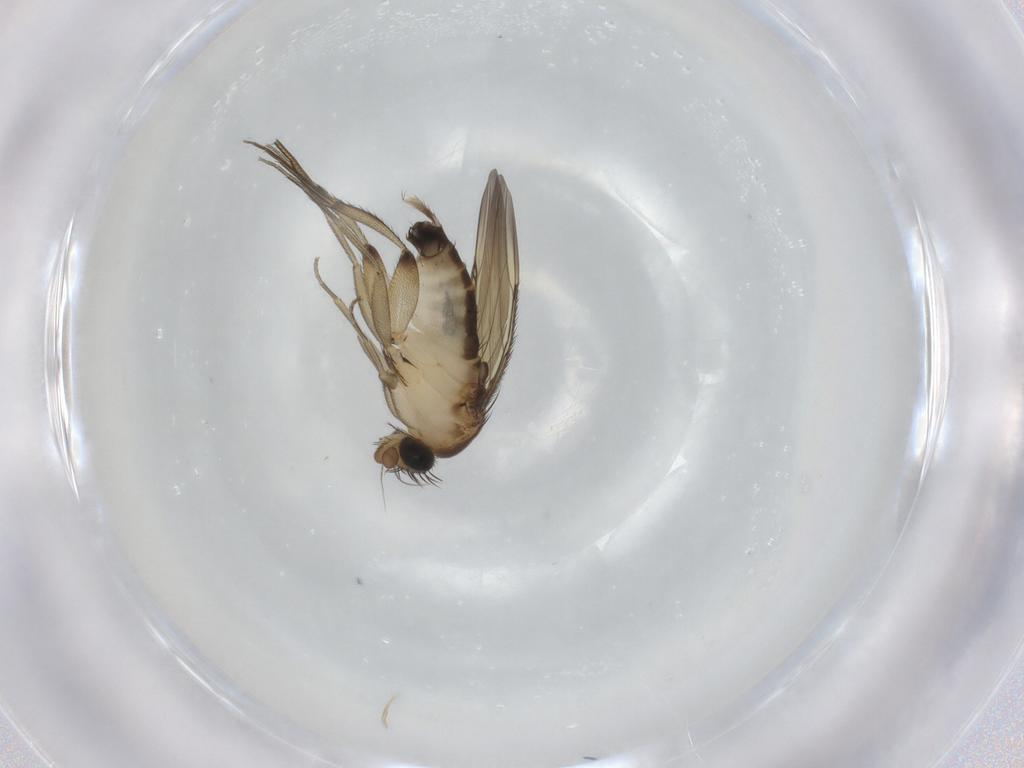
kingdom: Animalia
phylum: Arthropoda
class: Insecta
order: Diptera
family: Phoridae
